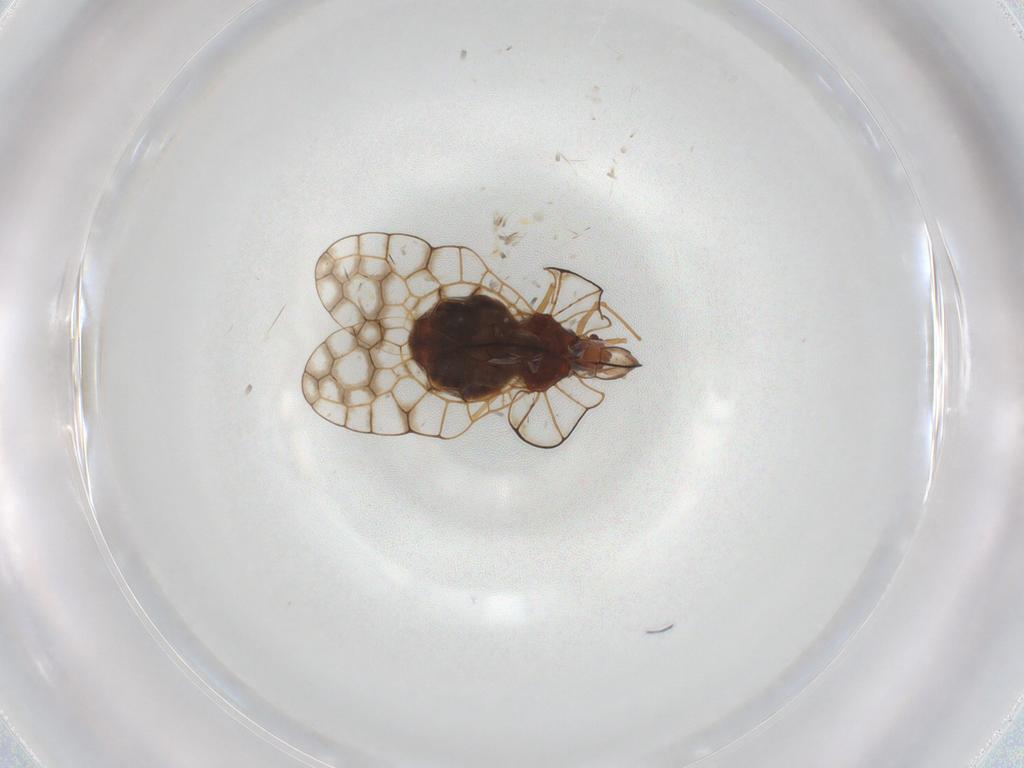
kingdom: Animalia
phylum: Arthropoda
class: Insecta
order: Hemiptera
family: Tingidae
